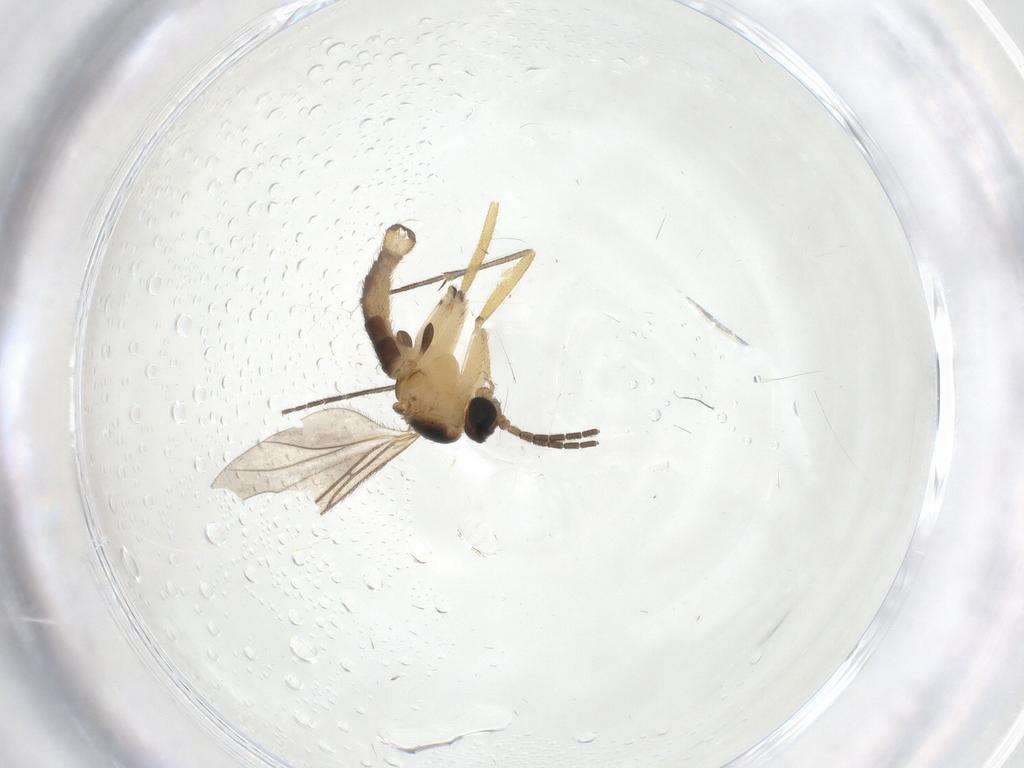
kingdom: Animalia
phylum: Arthropoda
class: Insecta
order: Diptera
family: Sciaridae
